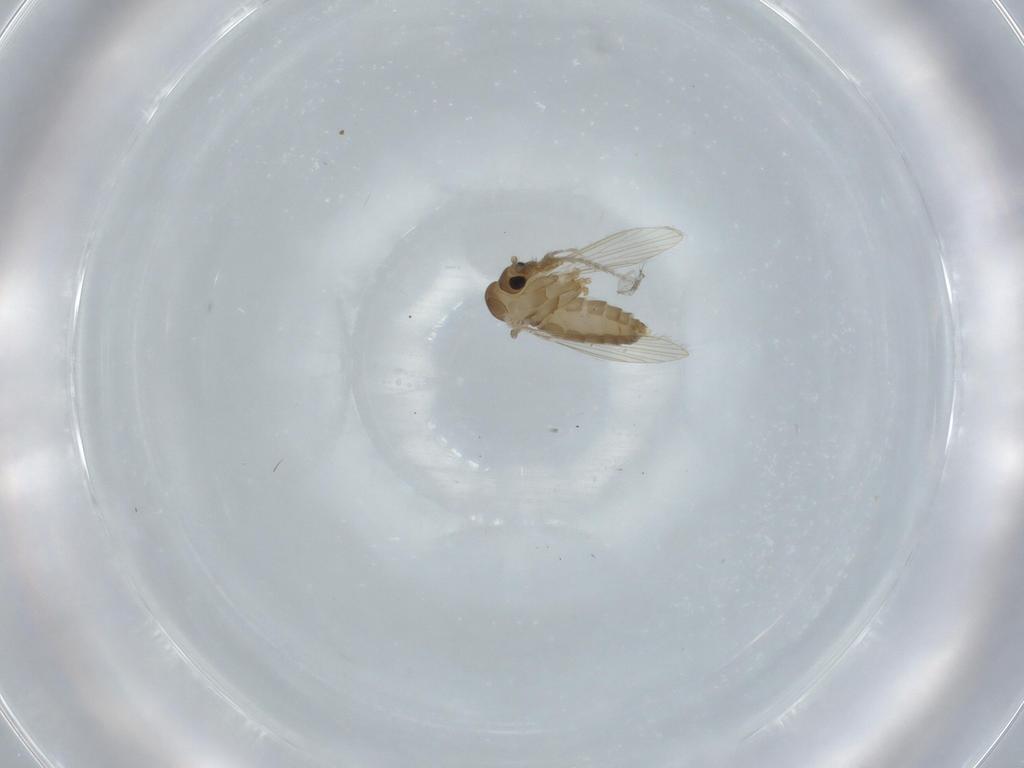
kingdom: Animalia
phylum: Arthropoda
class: Insecta
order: Diptera
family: Psychodidae
